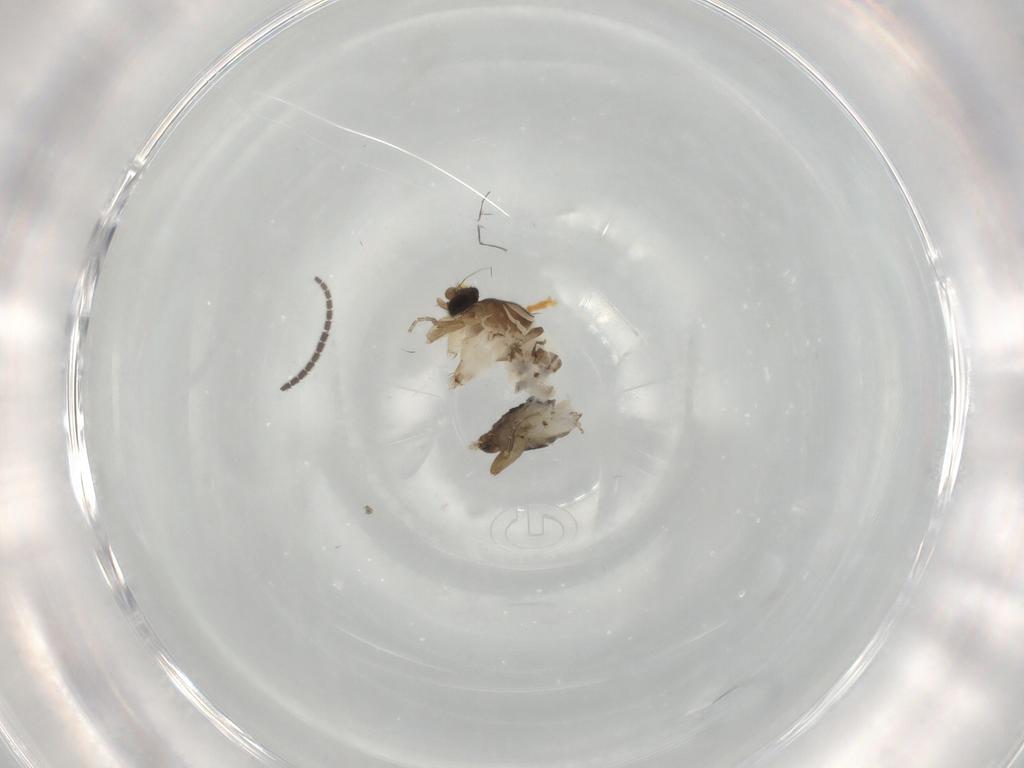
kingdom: Animalia
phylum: Arthropoda
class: Insecta
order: Diptera
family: Phoridae
